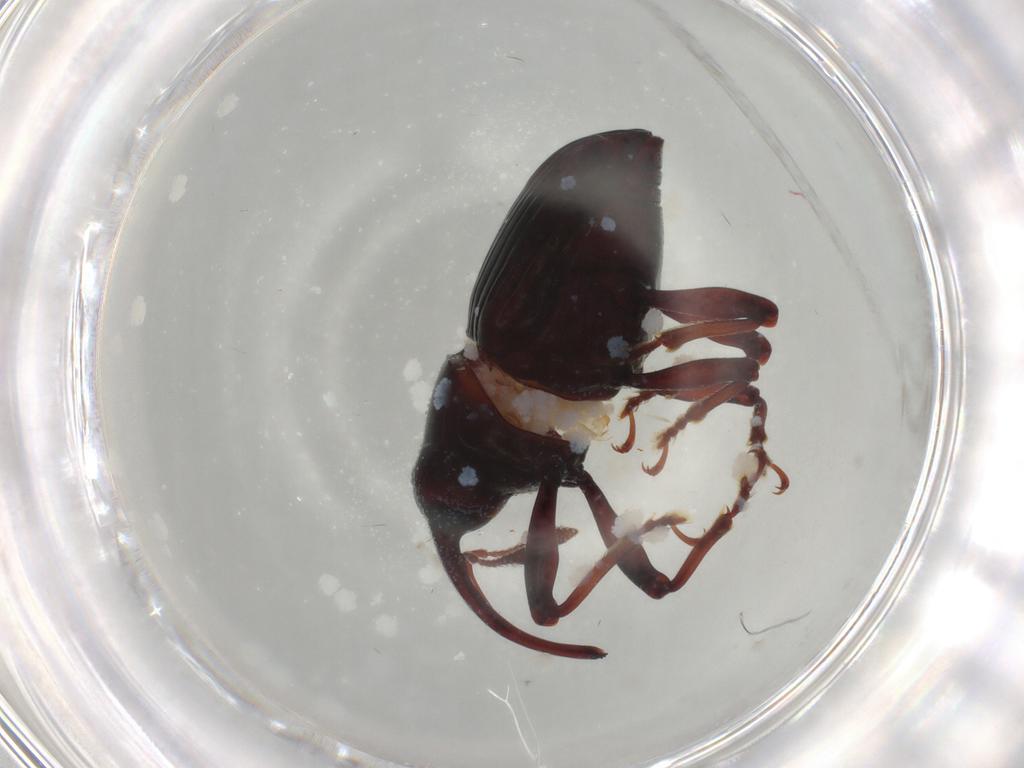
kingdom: Animalia
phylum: Arthropoda
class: Insecta
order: Coleoptera
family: Curculionidae
